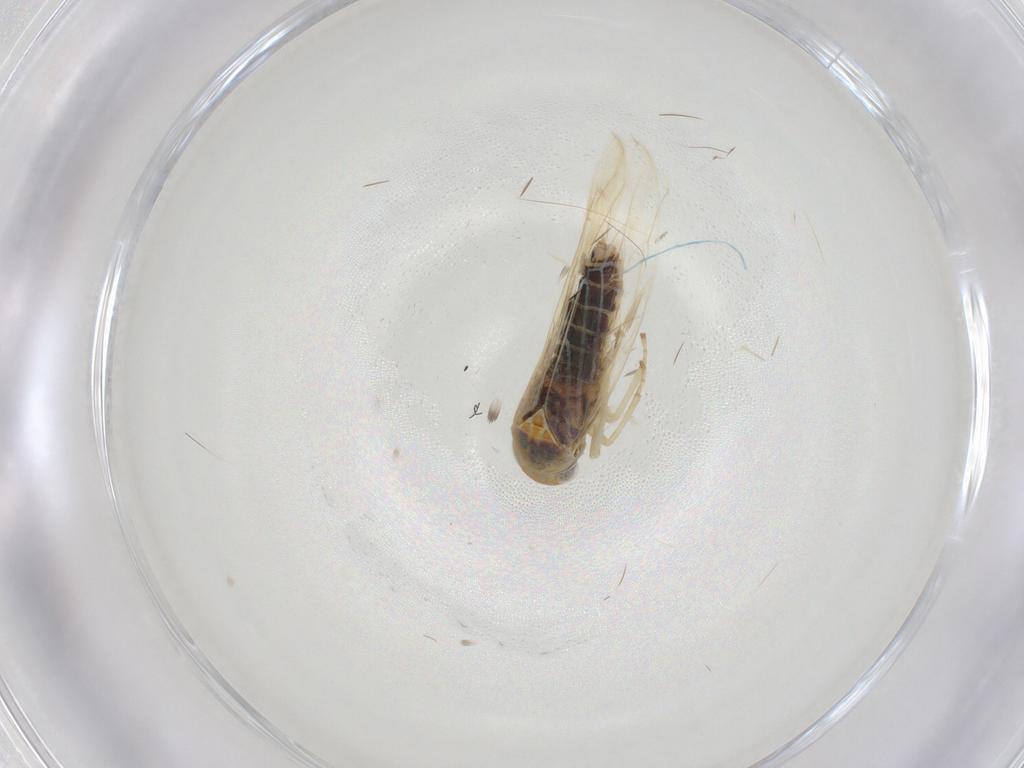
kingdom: Animalia
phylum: Arthropoda
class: Insecta
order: Hemiptera
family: Cicadellidae
